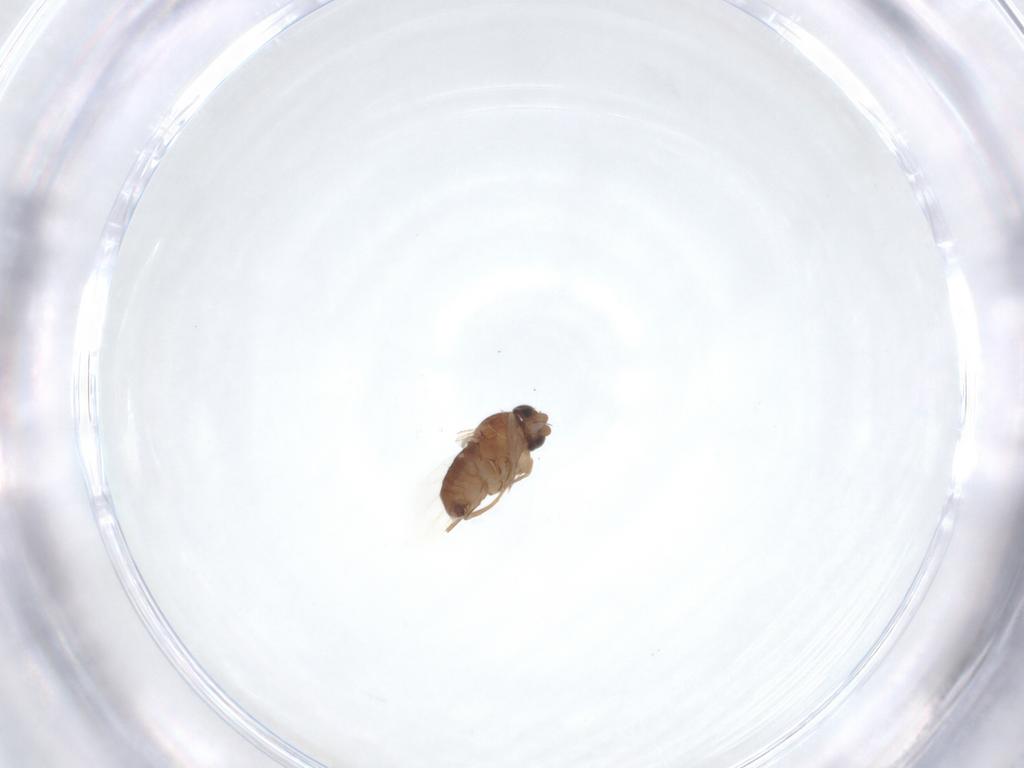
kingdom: Animalia
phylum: Arthropoda
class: Insecta
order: Diptera
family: Phoridae
